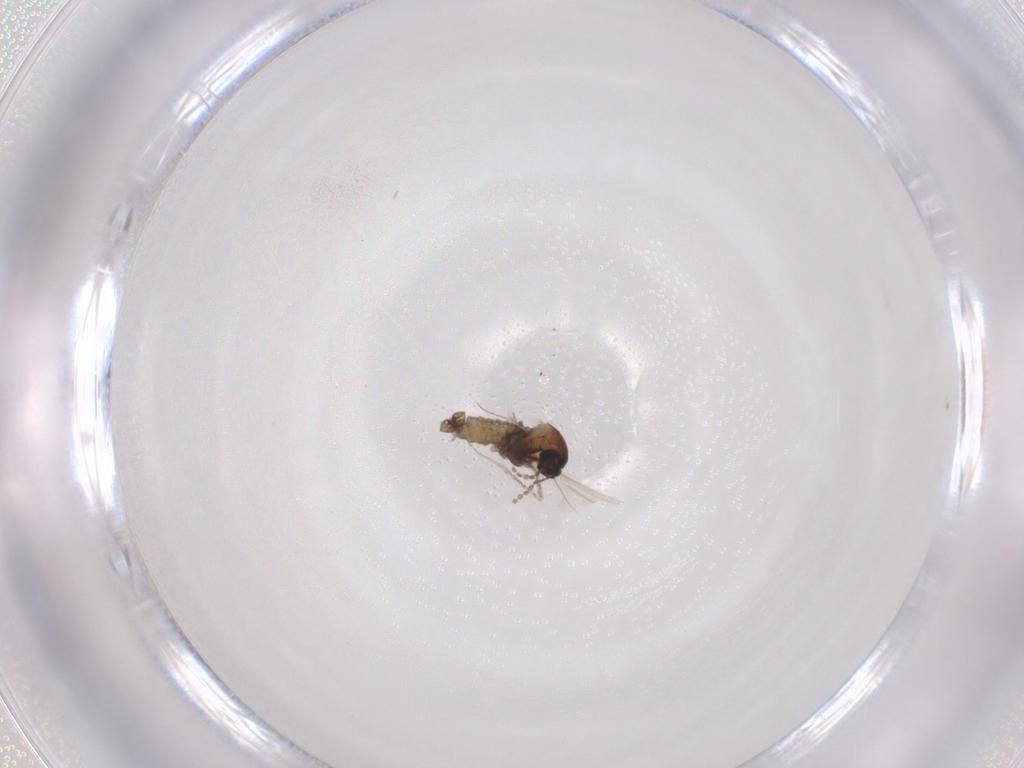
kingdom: Animalia
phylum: Arthropoda
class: Insecta
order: Diptera
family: Cecidomyiidae
